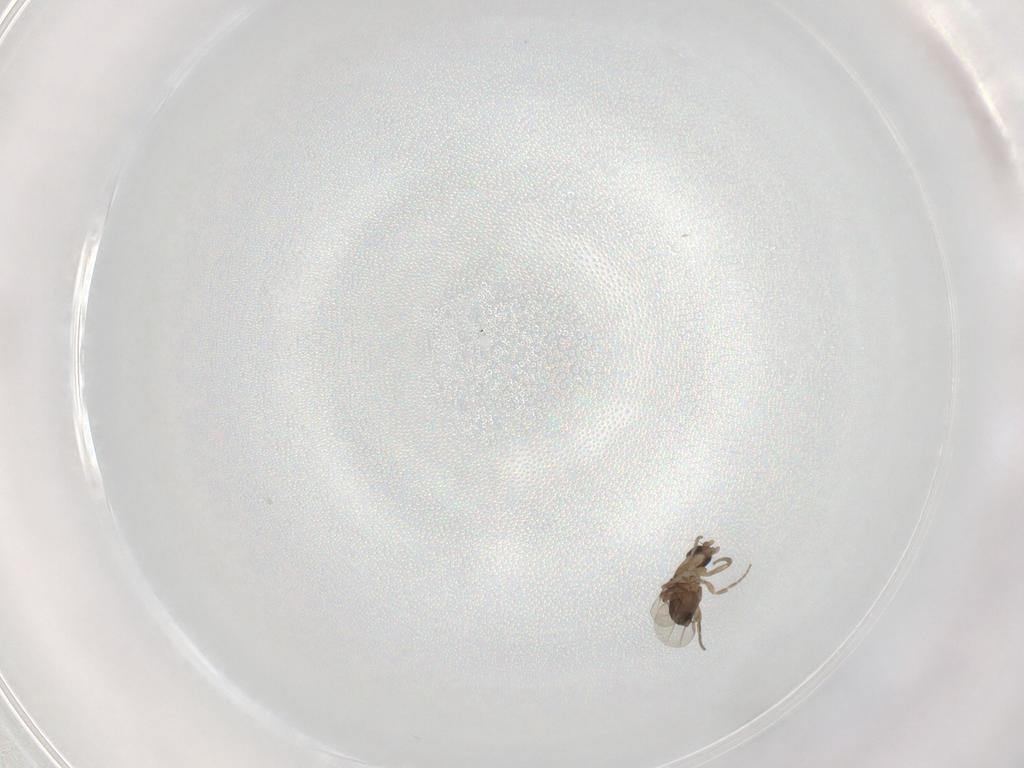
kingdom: Animalia
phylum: Arthropoda
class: Insecta
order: Diptera
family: Phoridae
